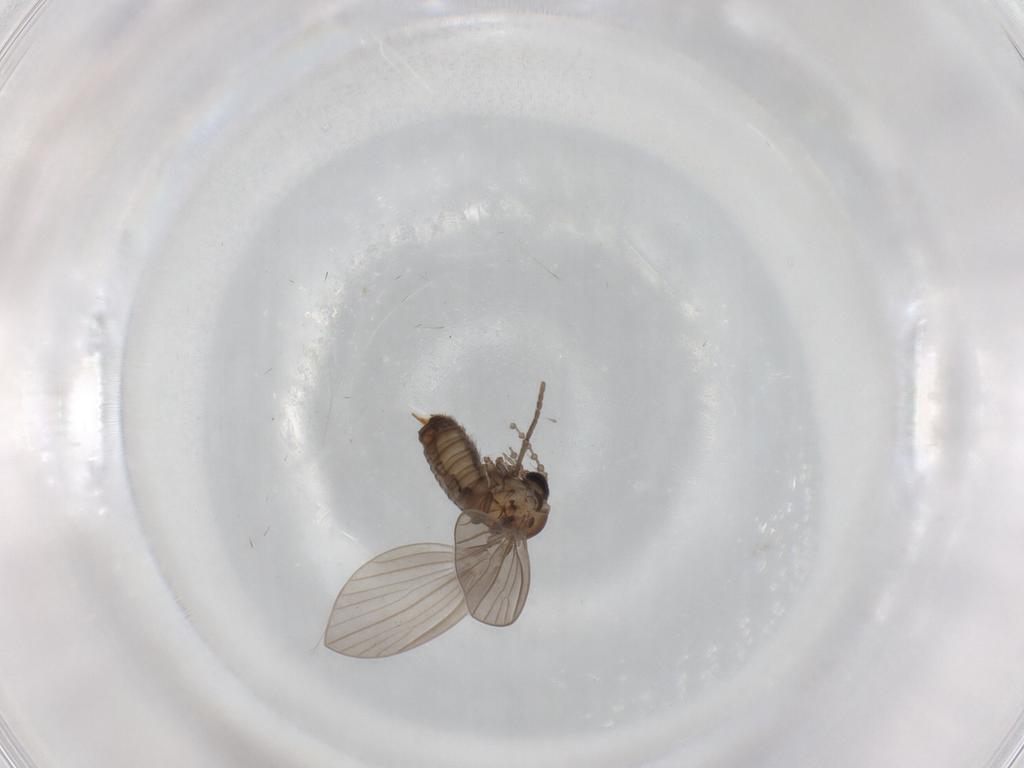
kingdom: Animalia
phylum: Arthropoda
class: Insecta
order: Diptera
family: Psychodidae
